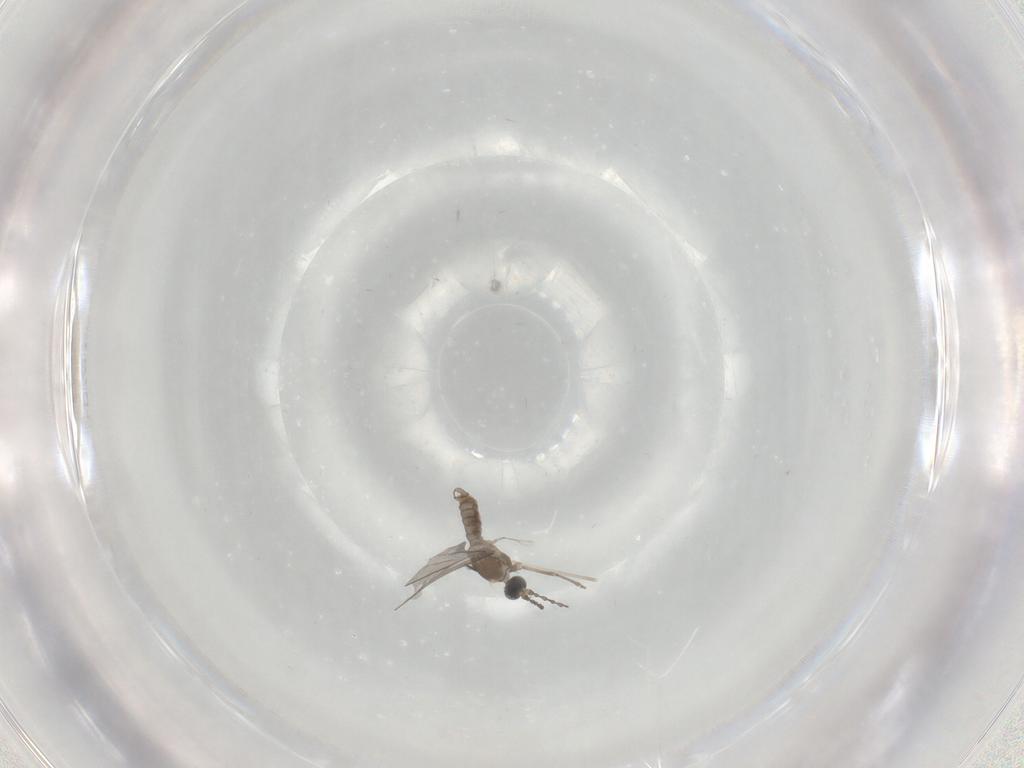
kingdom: Animalia
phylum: Arthropoda
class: Insecta
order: Diptera
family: Cecidomyiidae
